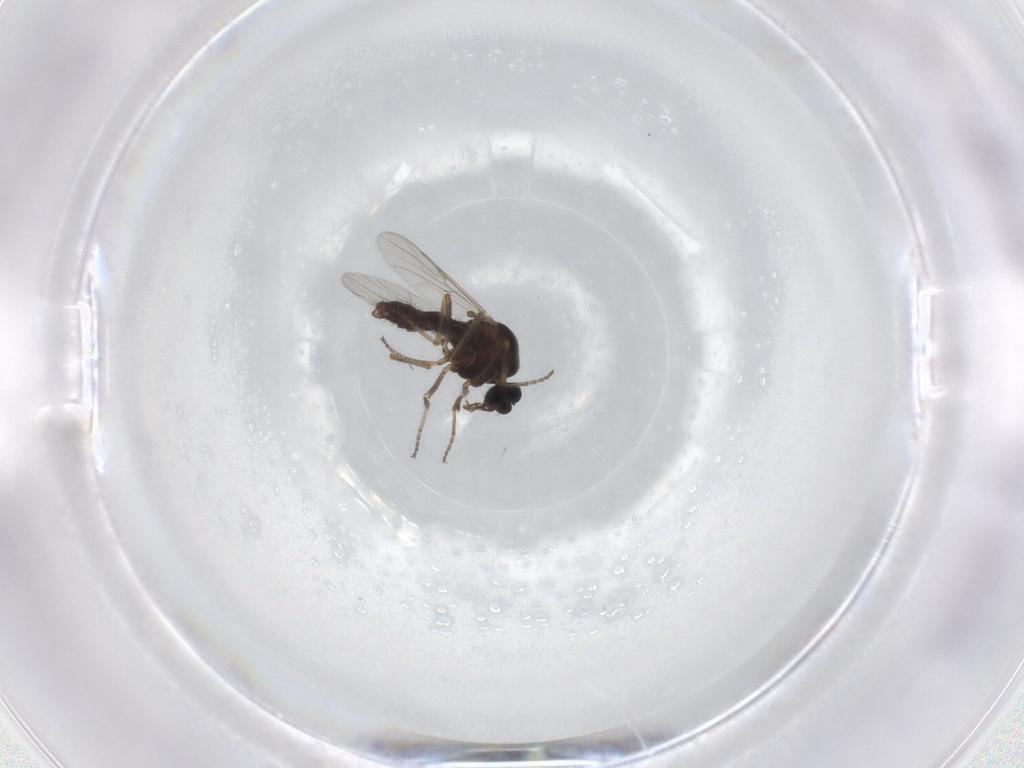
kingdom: Animalia
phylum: Arthropoda
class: Insecta
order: Diptera
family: Ceratopogonidae
